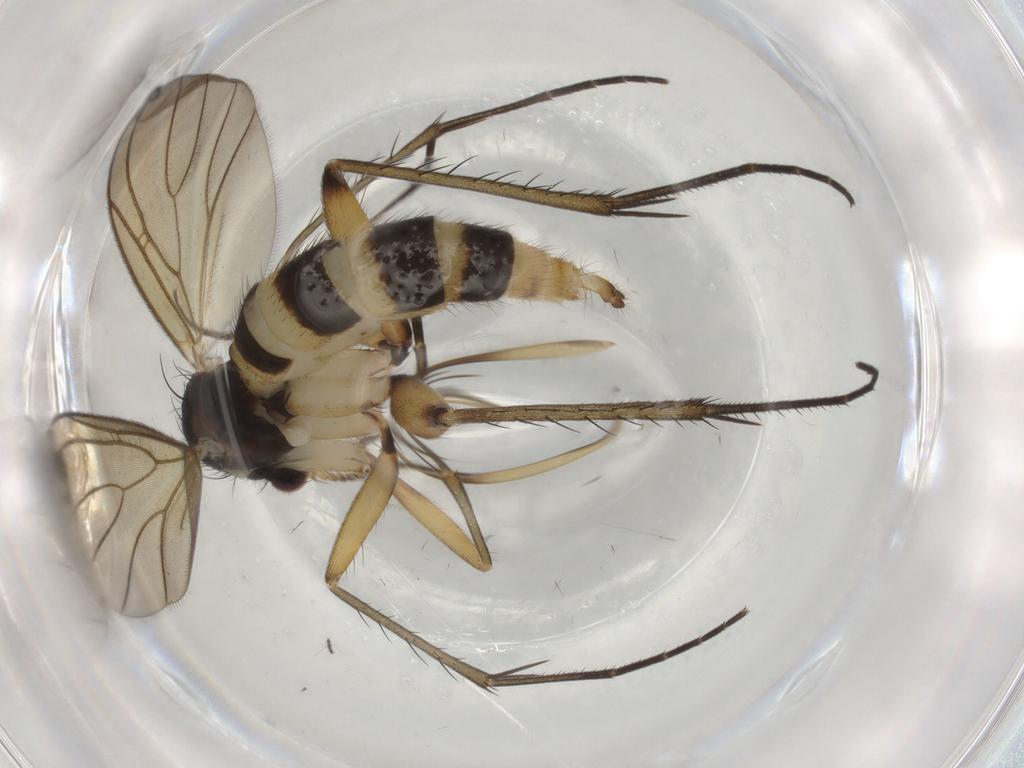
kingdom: Animalia
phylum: Arthropoda
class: Insecta
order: Diptera
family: Mycetophilidae
